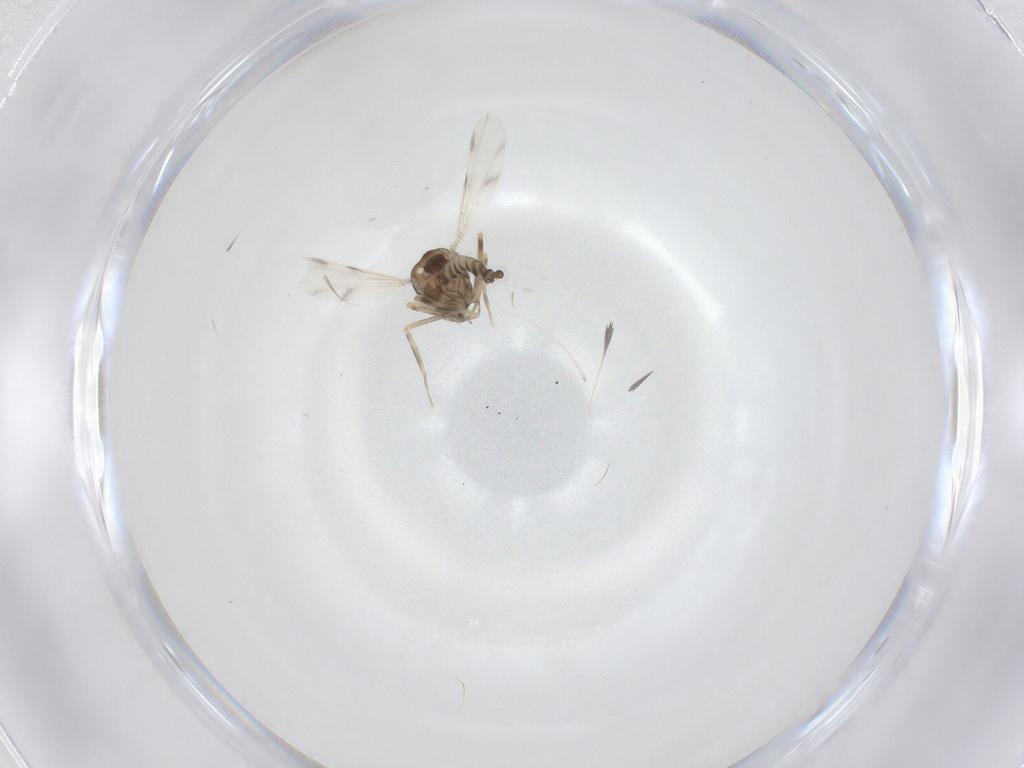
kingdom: Animalia
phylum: Arthropoda
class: Insecta
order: Diptera
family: Ceratopogonidae
